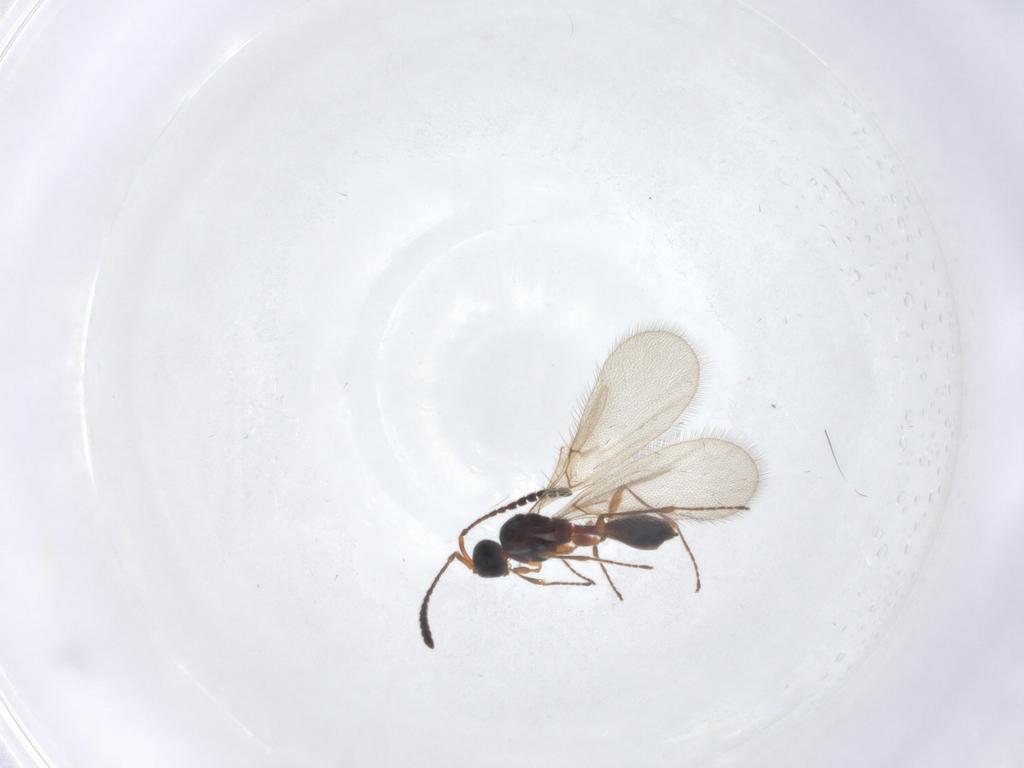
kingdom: Animalia
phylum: Arthropoda
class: Insecta
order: Hymenoptera
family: Diapriidae
